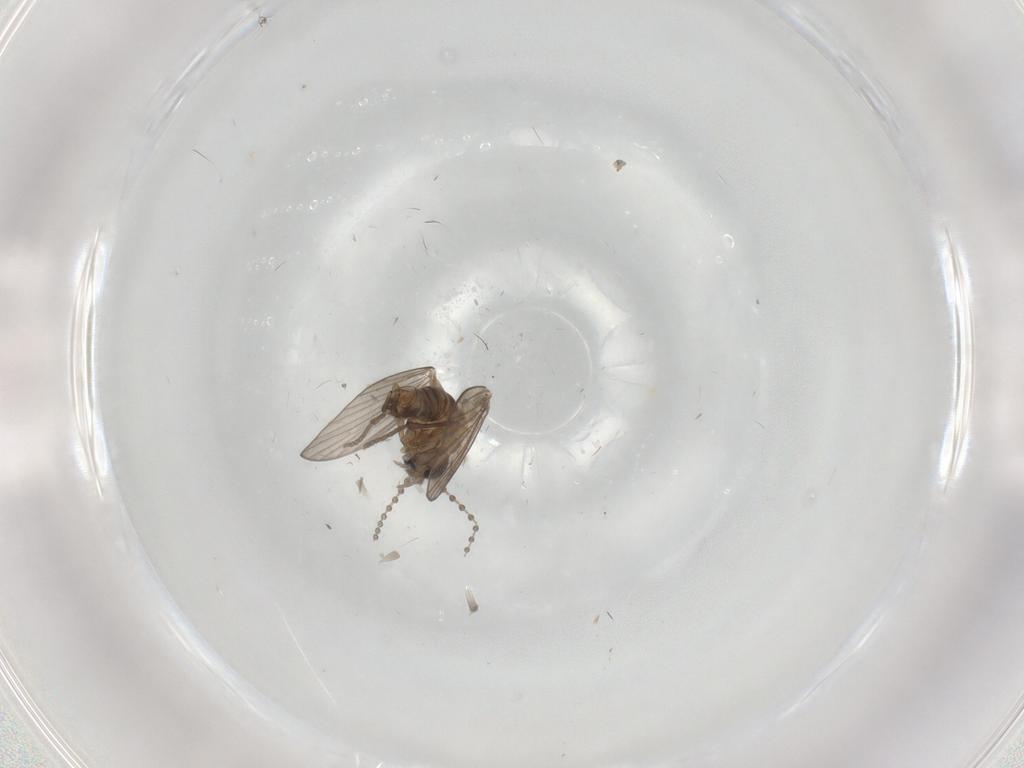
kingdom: Animalia
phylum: Arthropoda
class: Insecta
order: Diptera
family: Psychodidae
